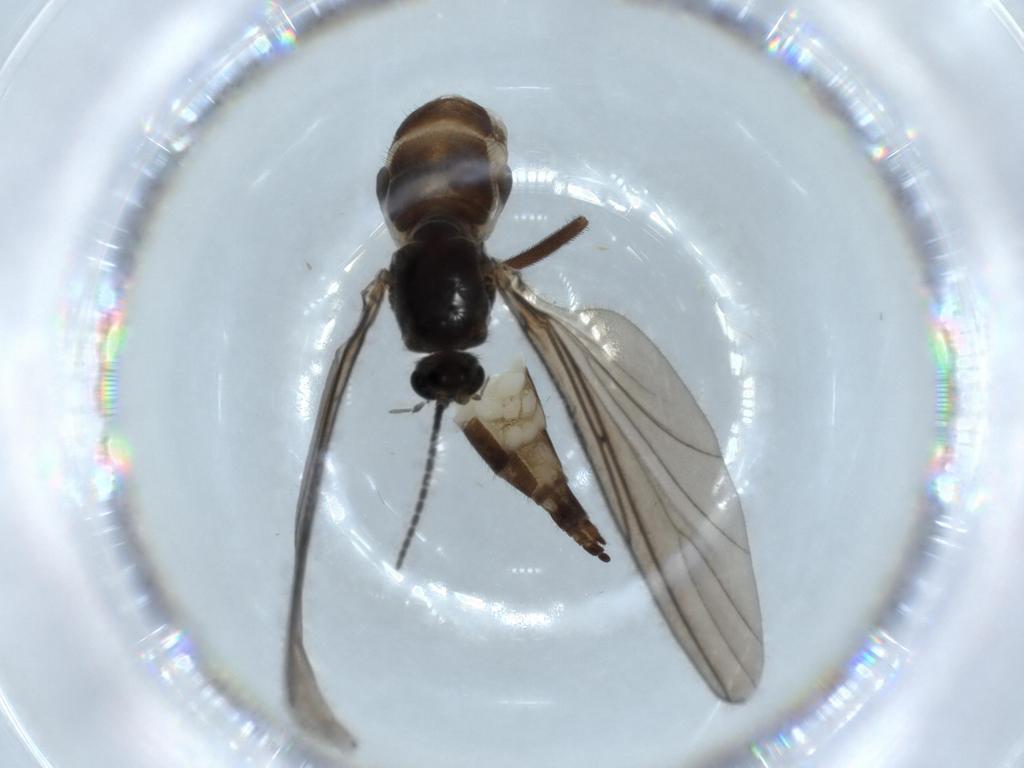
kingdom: Animalia
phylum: Arthropoda
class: Insecta
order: Diptera
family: Sciaridae
